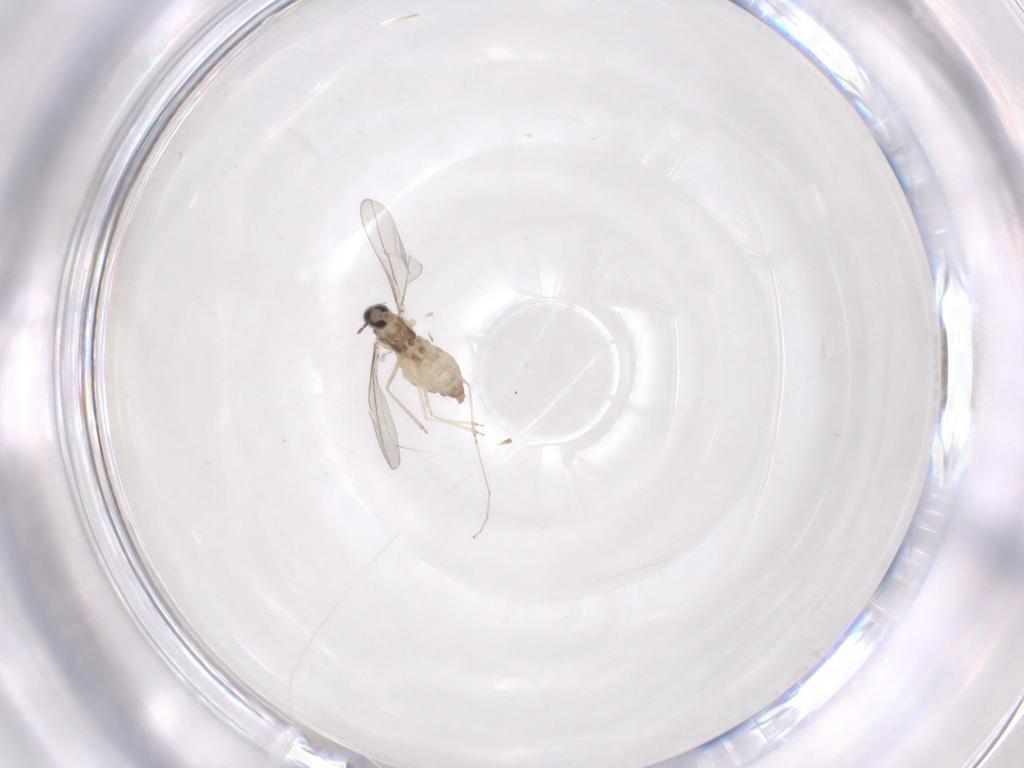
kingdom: Animalia
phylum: Arthropoda
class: Insecta
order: Diptera
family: Cecidomyiidae
